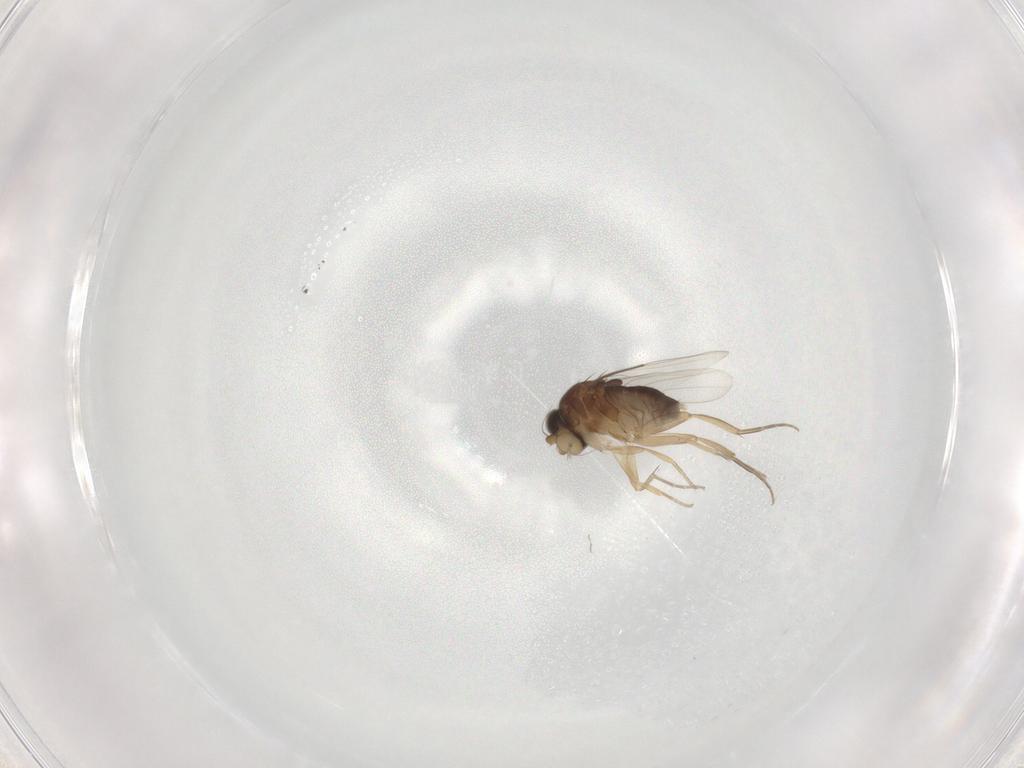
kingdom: Animalia
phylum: Arthropoda
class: Insecta
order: Diptera
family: Phoridae
